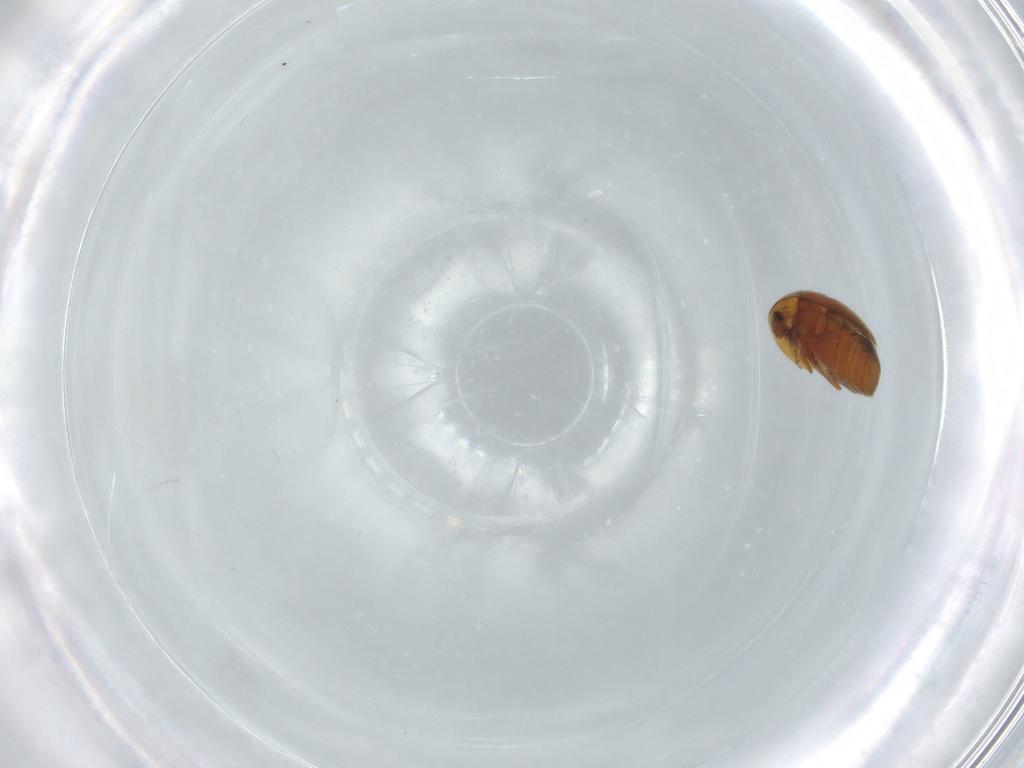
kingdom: Animalia
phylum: Arthropoda
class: Insecta
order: Coleoptera
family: Corylophidae
